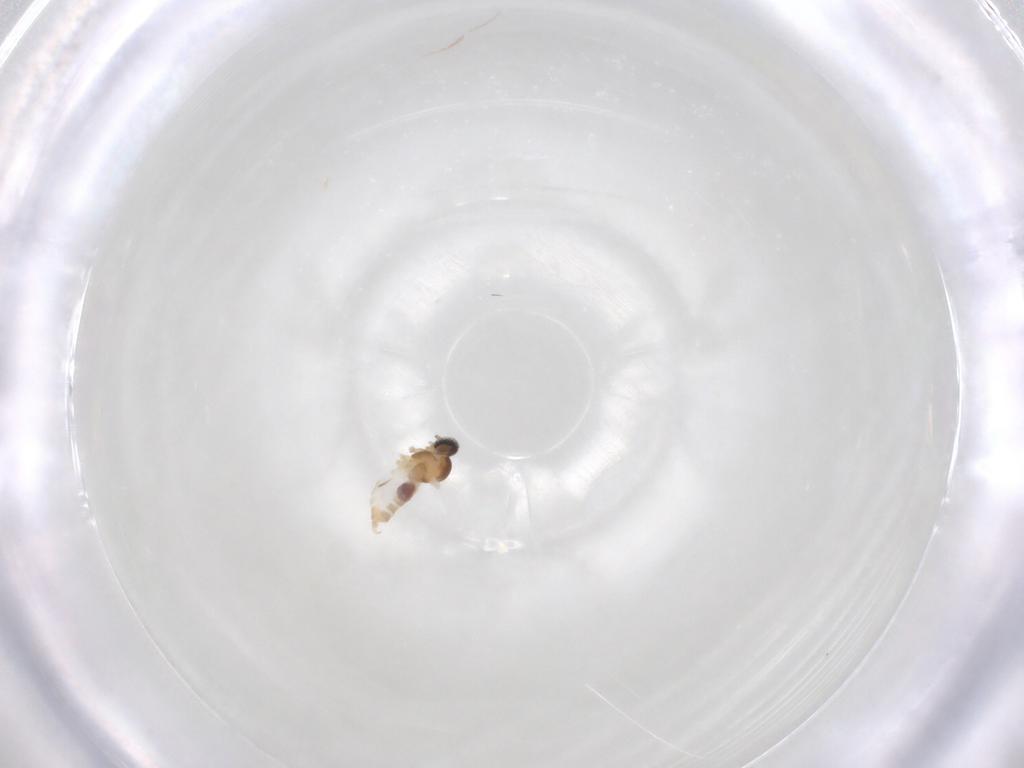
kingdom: Animalia
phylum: Arthropoda
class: Insecta
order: Diptera
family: Cecidomyiidae
